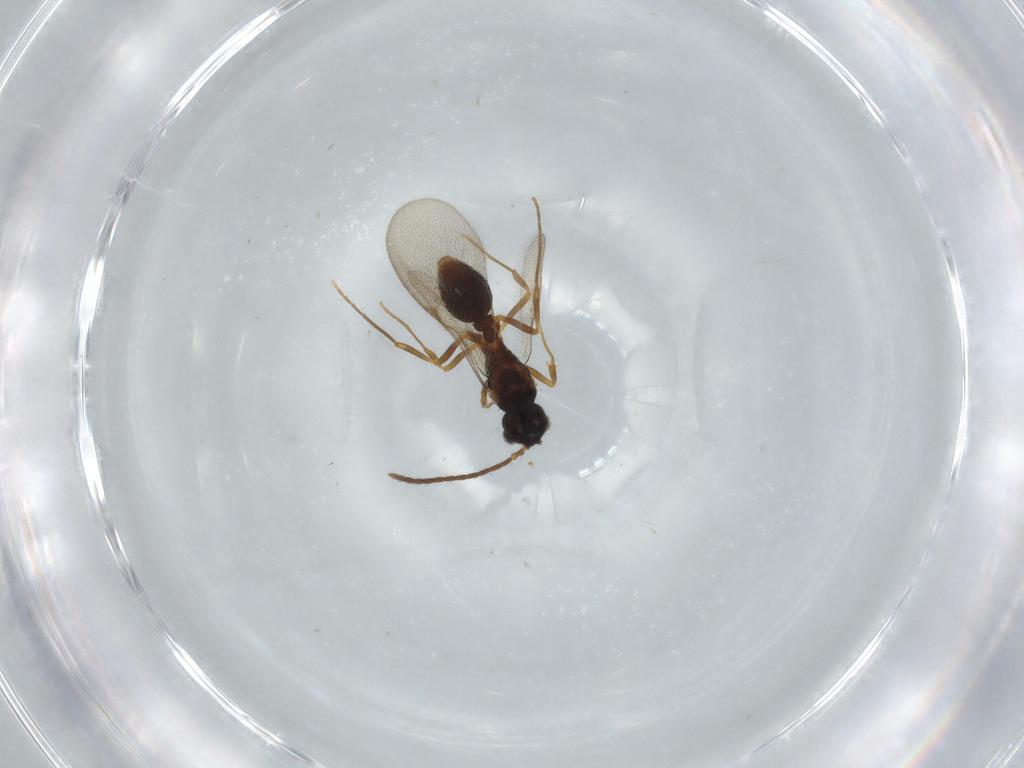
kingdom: Animalia
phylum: Arthropoda
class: Insecta
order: Hymenoptera
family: Formicidae
